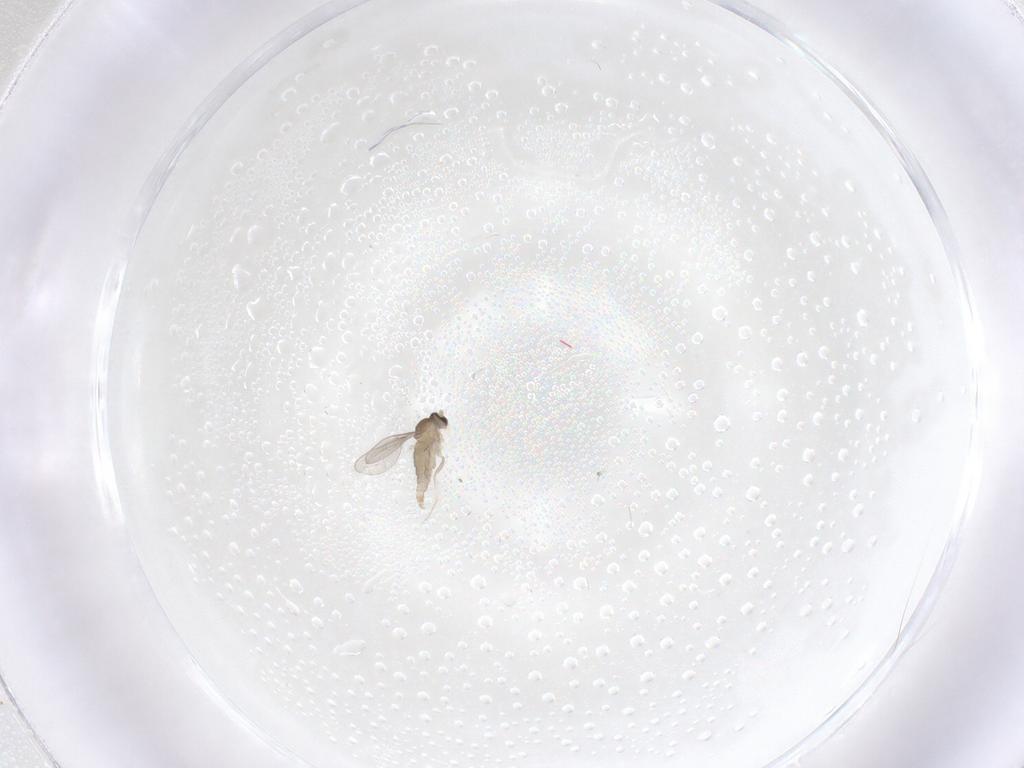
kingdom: Animalia
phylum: Arthropoda
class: Insecta
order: Diptera
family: Cecidomyiidae
